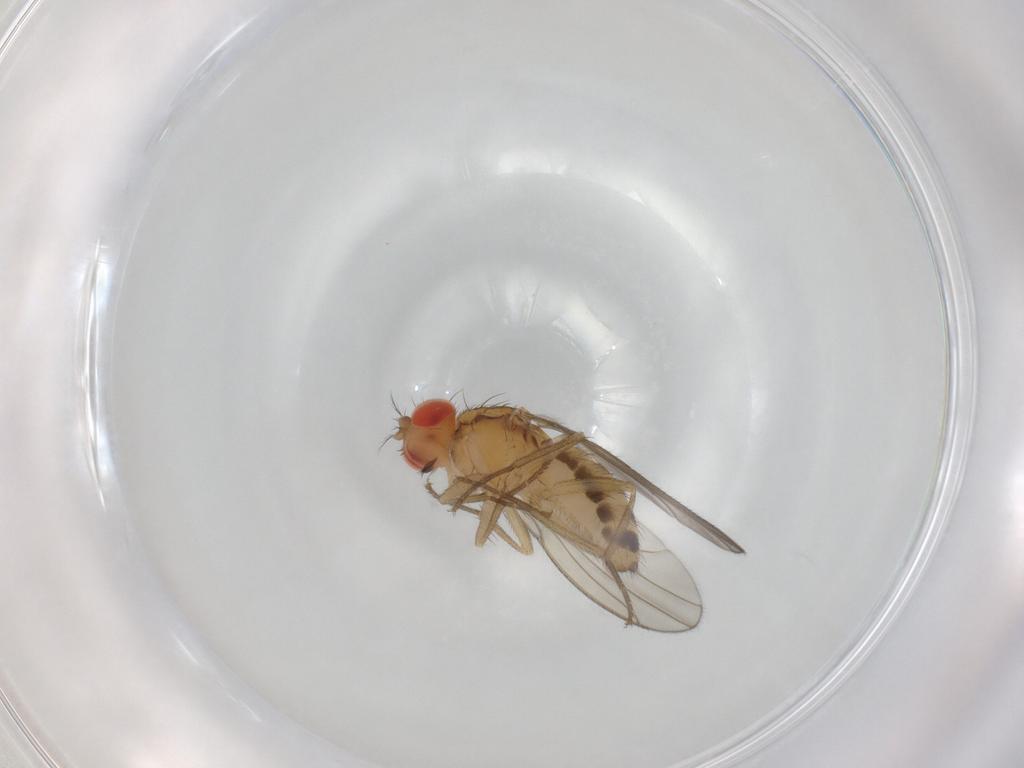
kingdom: Animalia
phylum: Arthropoda
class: Insecta
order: Diptera
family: Drosophilidae
